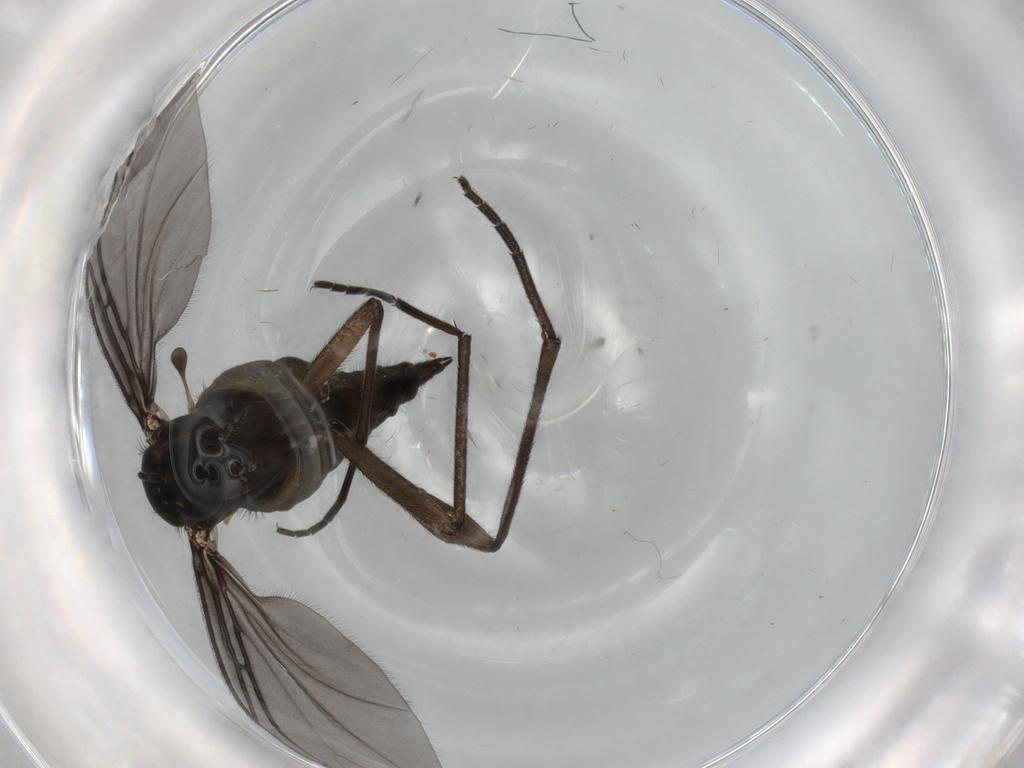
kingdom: Animalia
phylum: Arthropoda
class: Insecta
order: Diptera
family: Sciaridae
